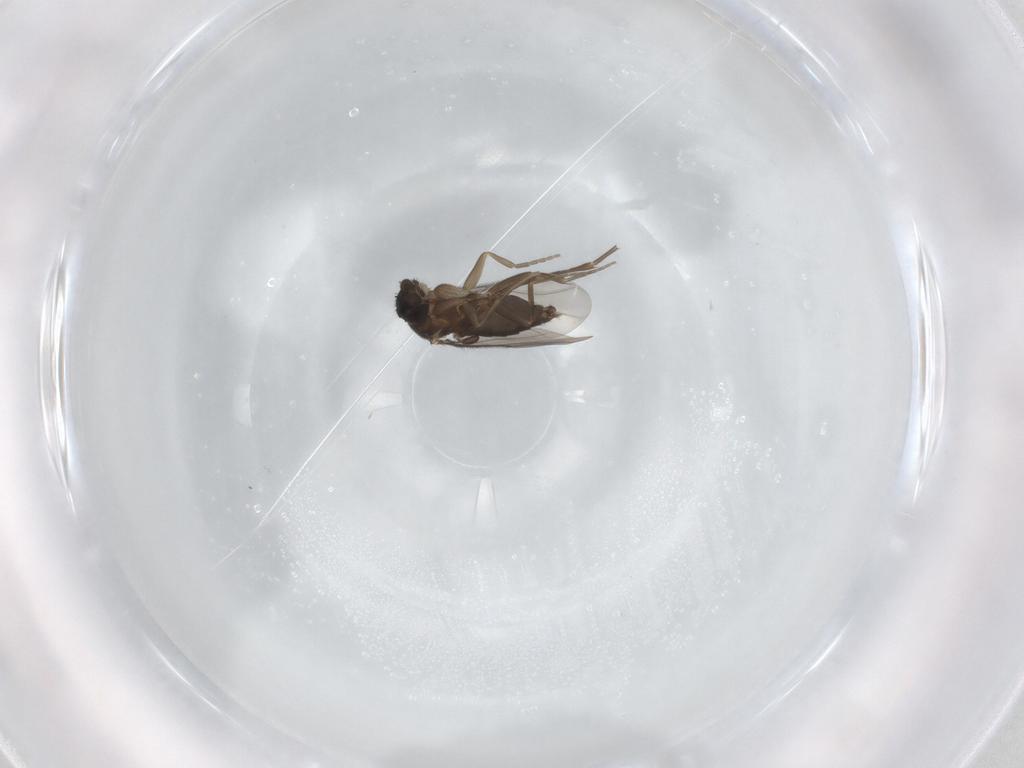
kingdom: Animalia
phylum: Arthropoda
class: Insecta
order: Diptera
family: Phoridae
